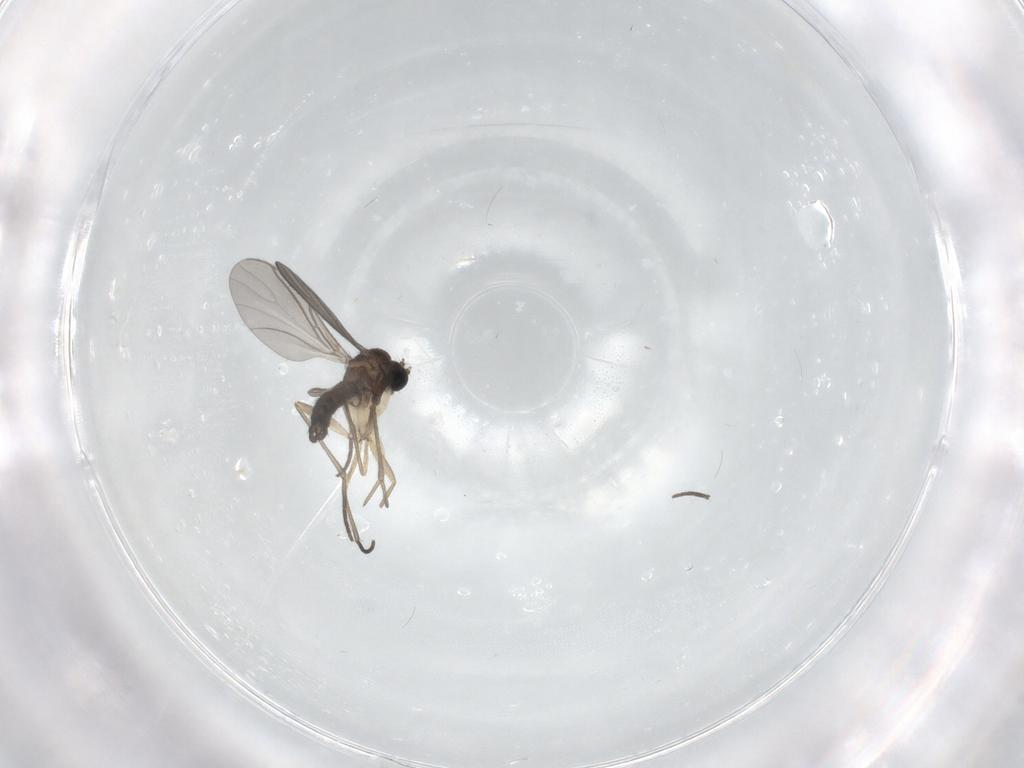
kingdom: Animalia
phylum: Arthropoda
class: Insecta
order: Diptera
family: Sciaridae
